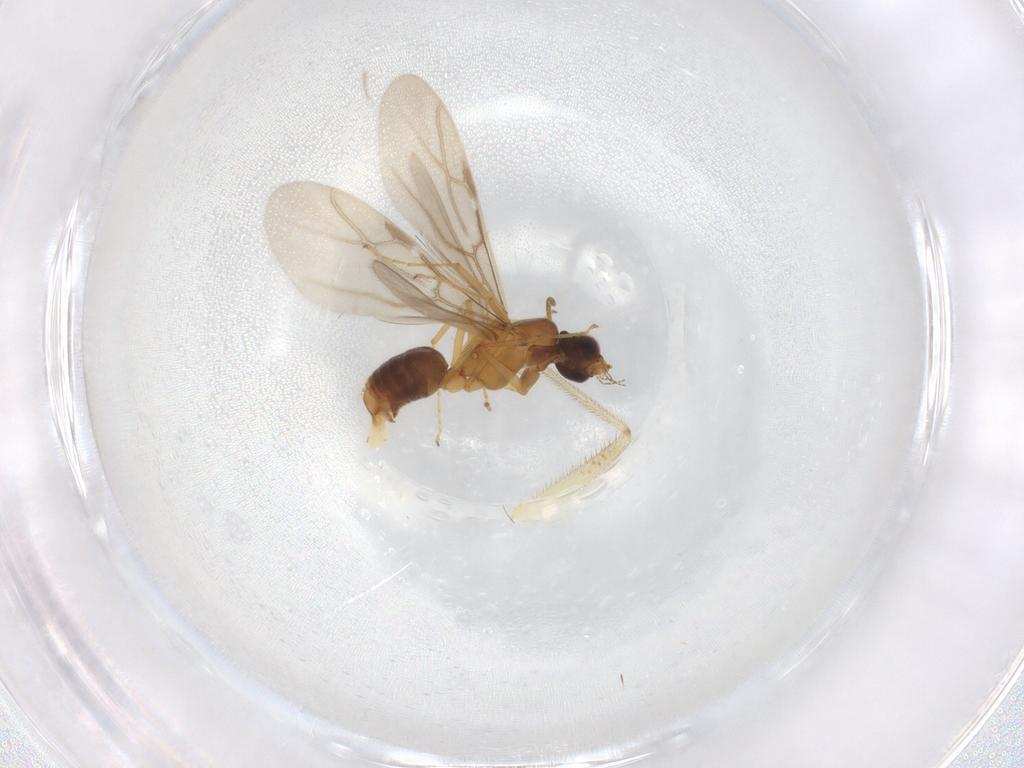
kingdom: Animalia
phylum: Arthropoda
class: Insecta
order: Hymenoptera
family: Formicidae
